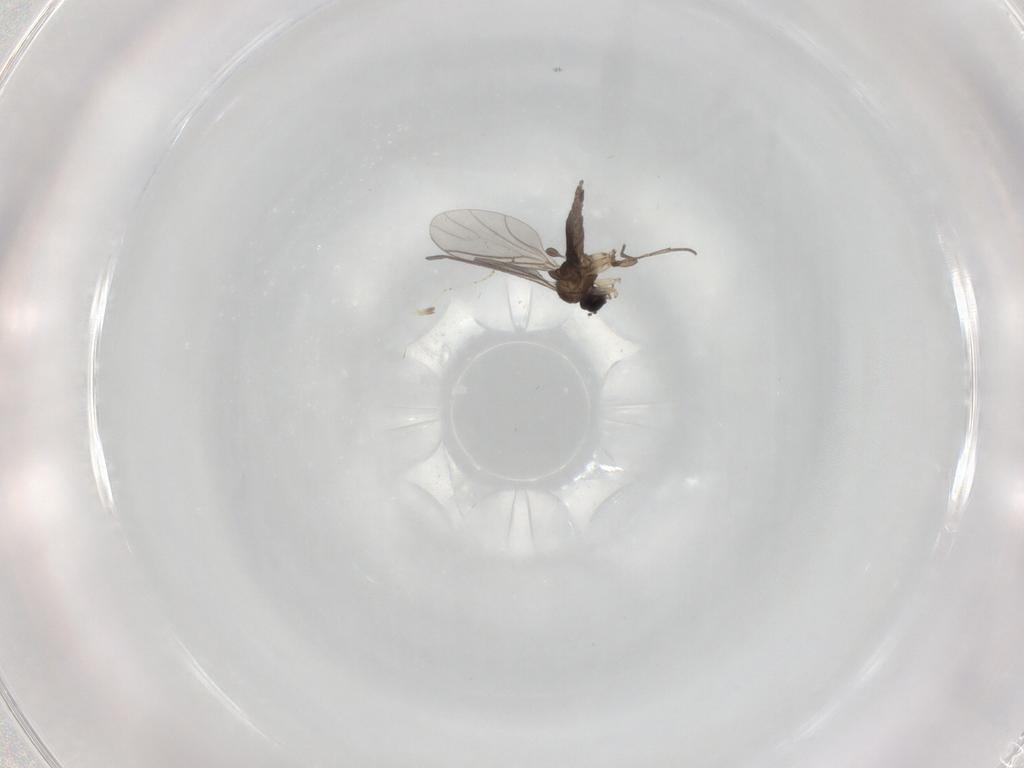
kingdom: Animalia
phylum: Arthropoda
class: Insecta
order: Diptera
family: Sciaridae
